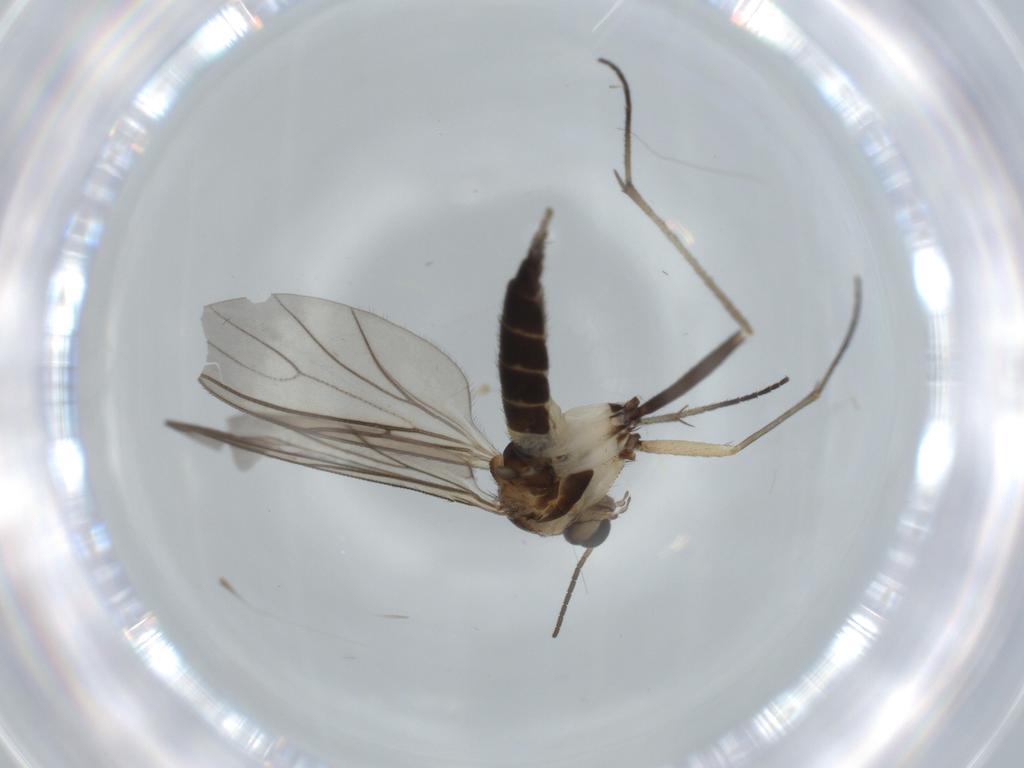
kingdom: Animalia
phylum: Arthropoda
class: Insecta
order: Diptera
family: Sciaridae
